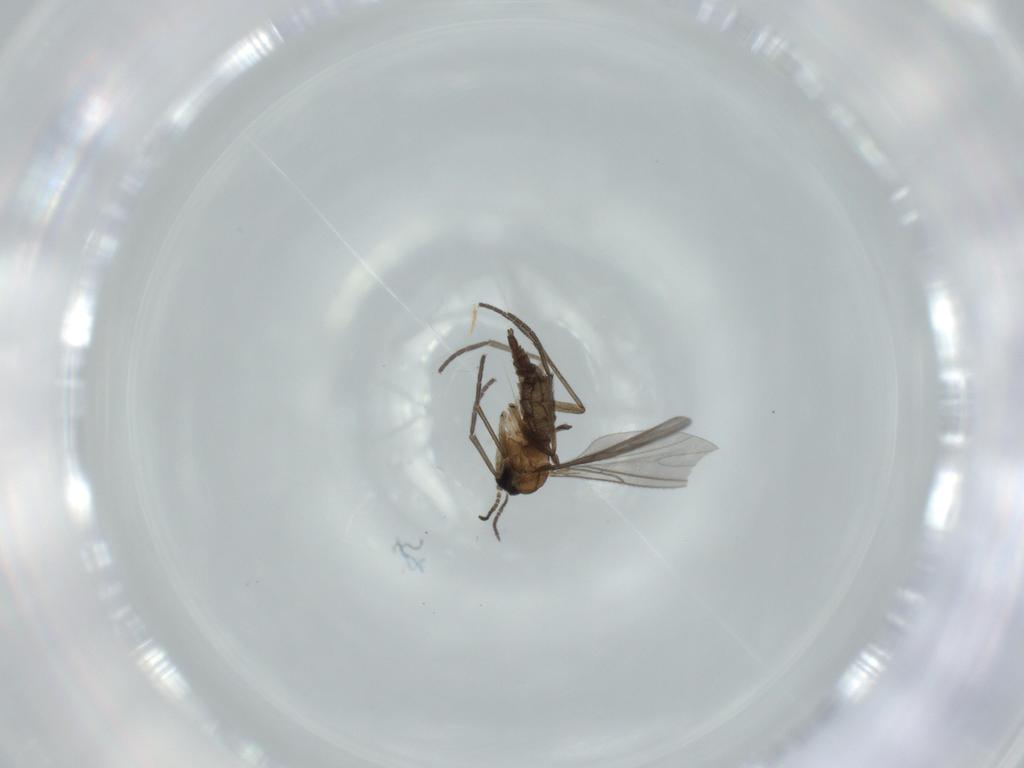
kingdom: Animalia
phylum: Arthropoda
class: Insecta
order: Diptera
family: Sciaridae
